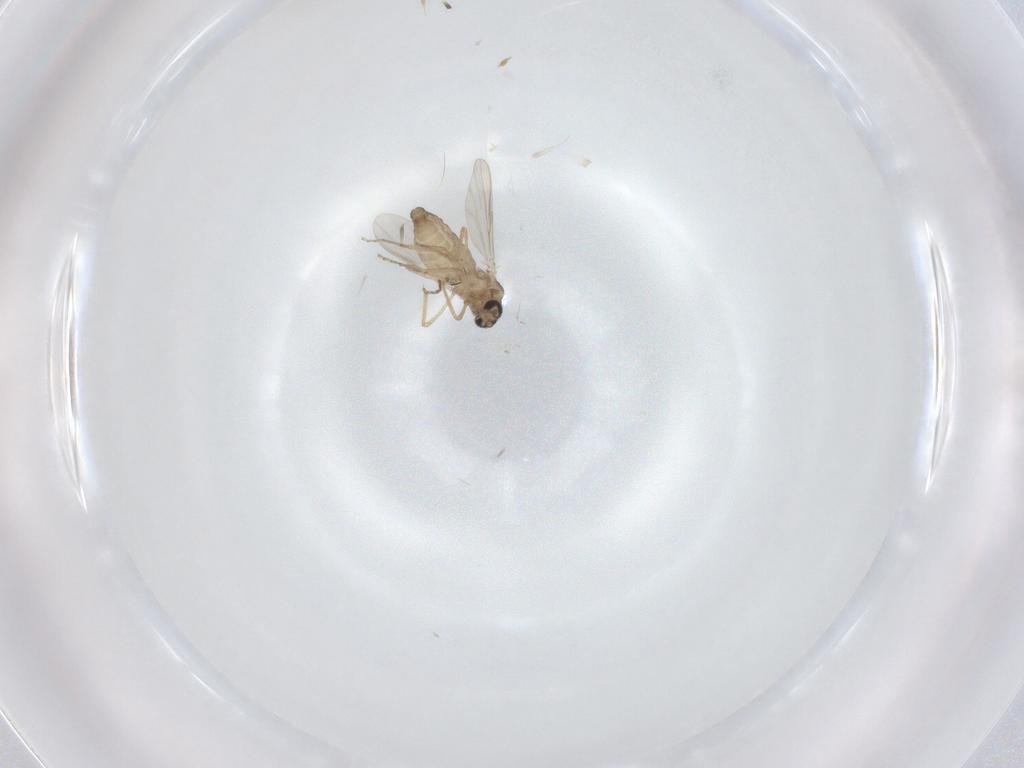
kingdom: Animalia
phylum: Arthropoda
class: Insecta
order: Diptera
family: Ceratopogonidae
